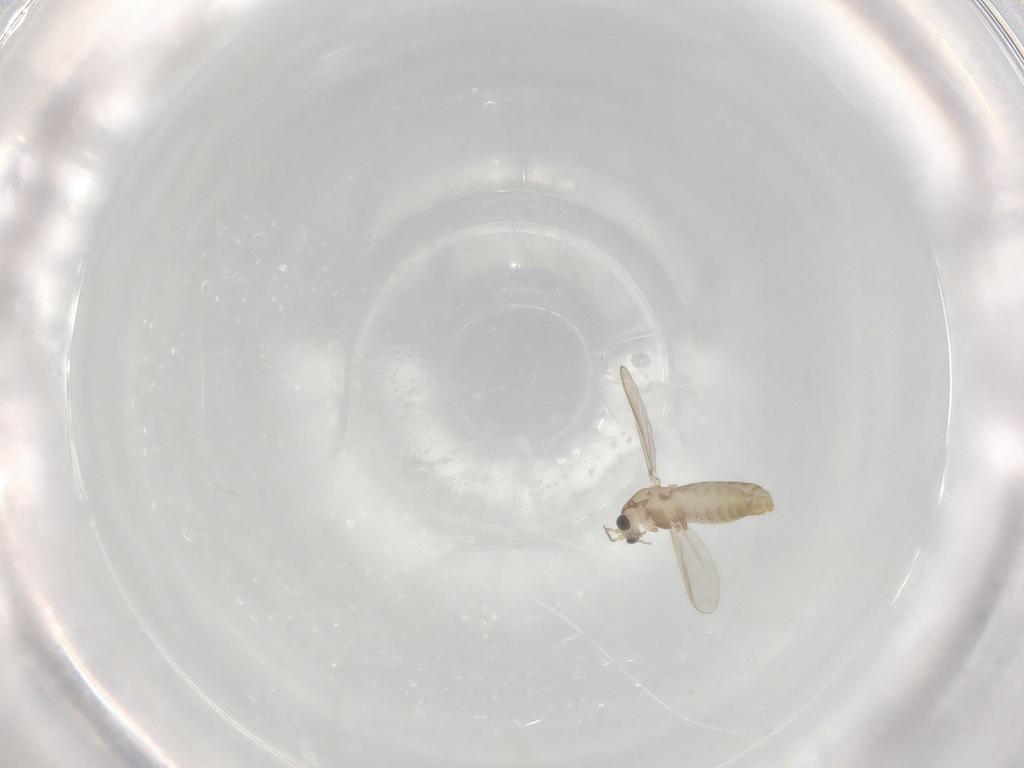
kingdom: Animalia
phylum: Arthropoda
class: Insecta
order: Diptera
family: Chironomidae
